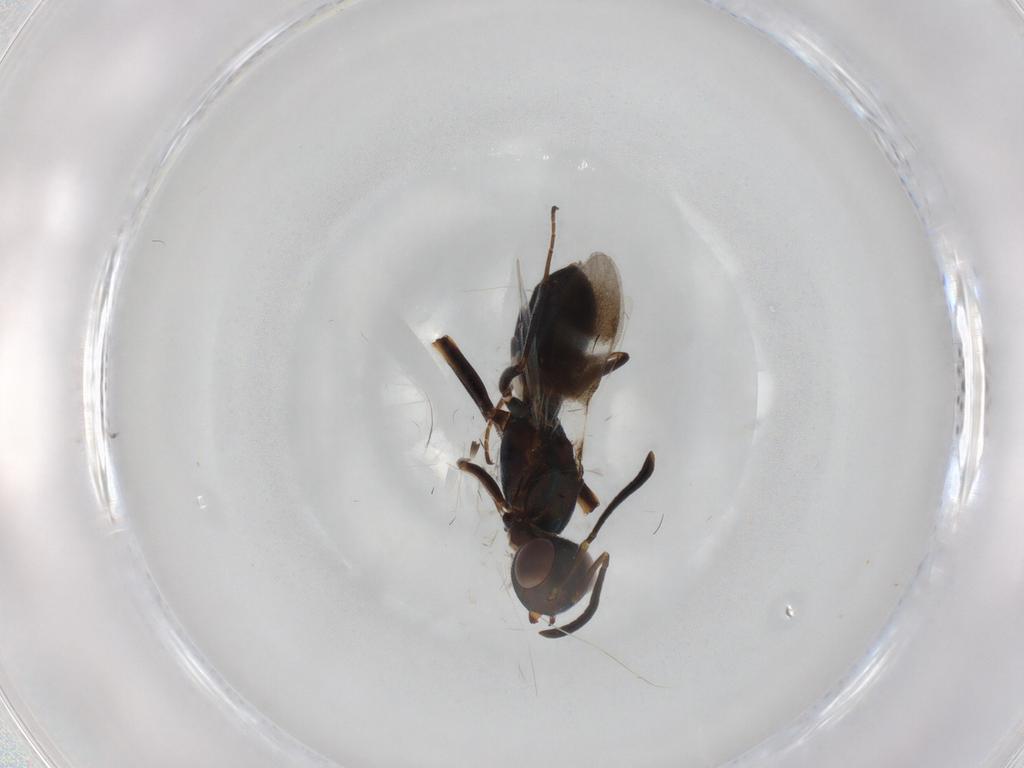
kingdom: Animalia
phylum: Arthropoda
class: Insecta
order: Hymenoptera
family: Eupelmidae
